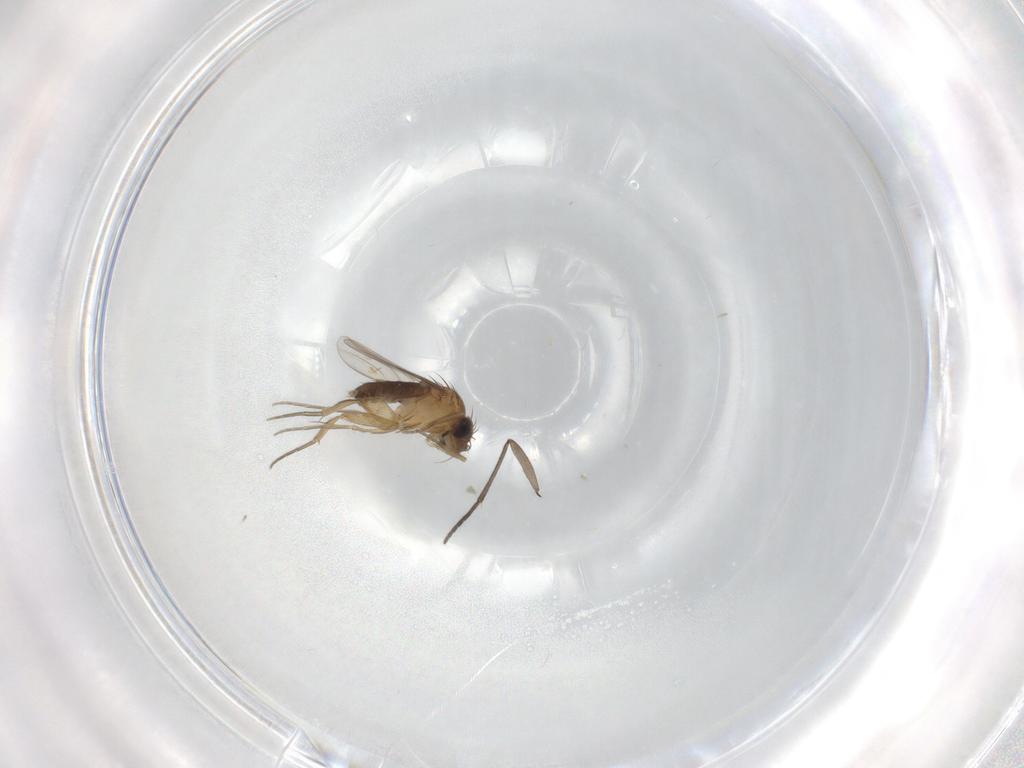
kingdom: Animalia
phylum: Arthropoda
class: Insecta
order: Diptera
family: Phoridae
